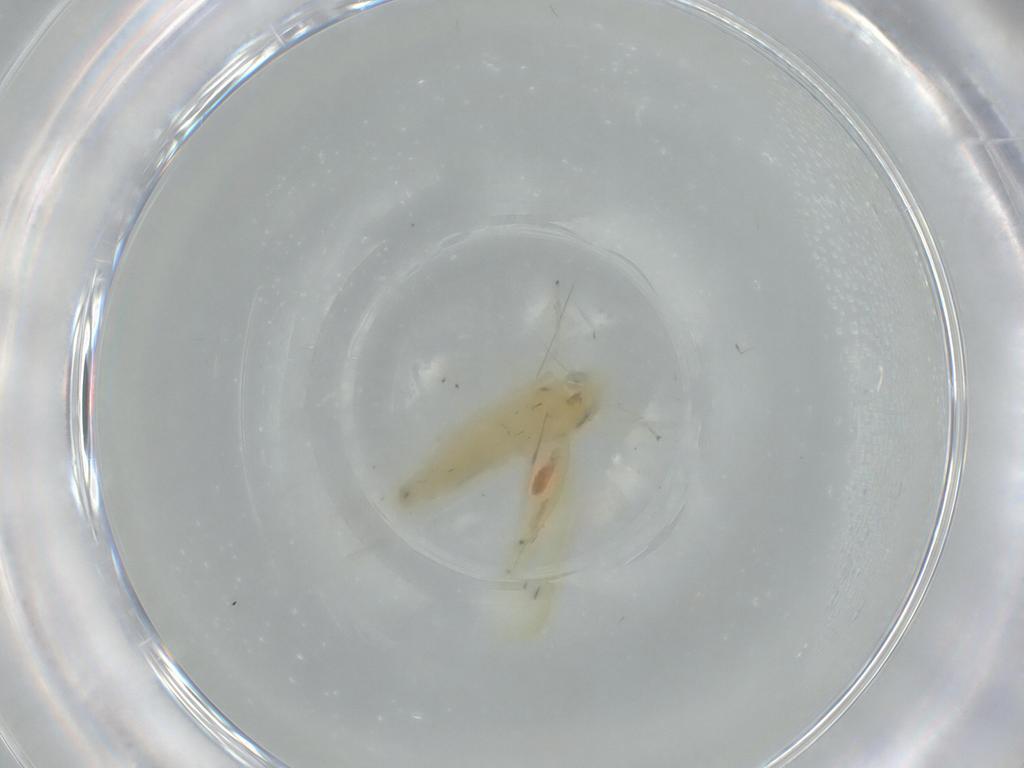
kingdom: Animalia
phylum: Arthropoda
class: Insecta
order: Hemiptera
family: Cicadellidae
